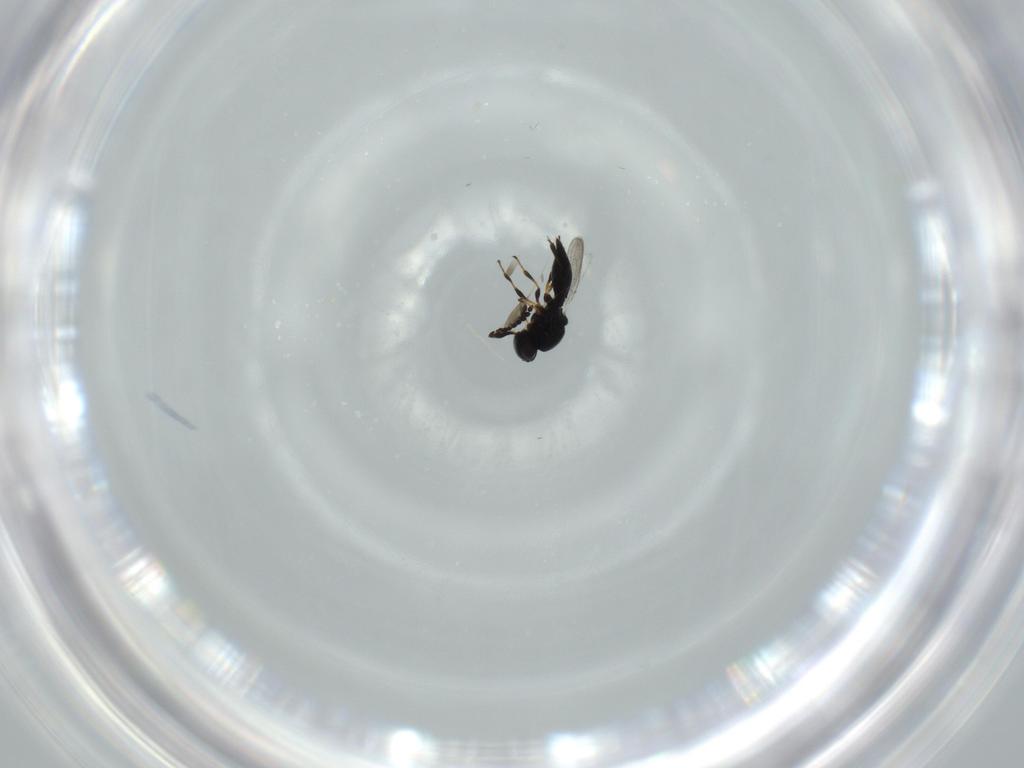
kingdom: Animalia
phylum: Arthropoda
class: Insecta
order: Hymenoptera
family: Platygastridae
